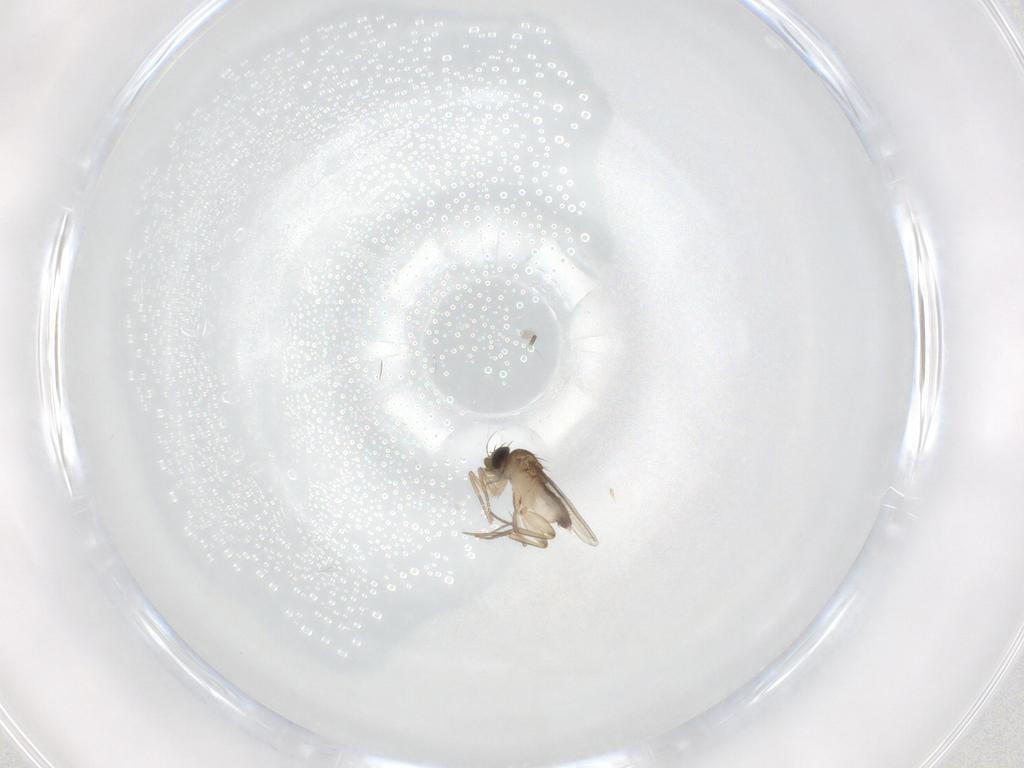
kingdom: Animalia
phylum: Arthropoda
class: Insecta
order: Diptera
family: Phoridae
